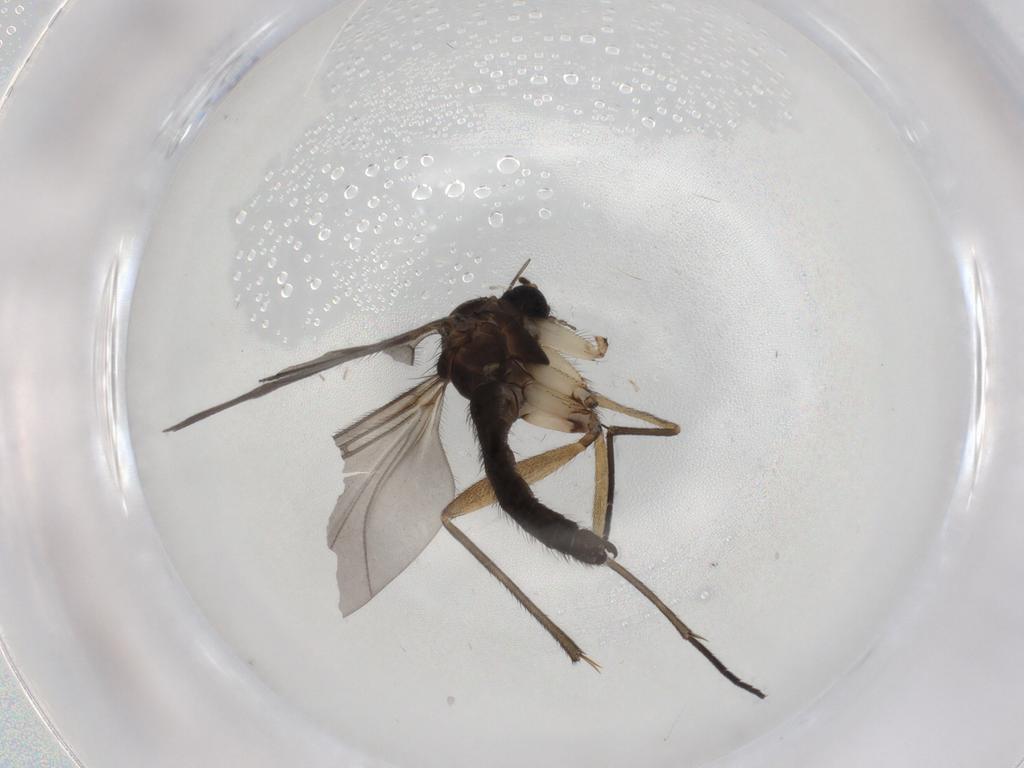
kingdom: Animalia
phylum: Arthropoda
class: Insecta
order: Diptera
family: Sciaridae
